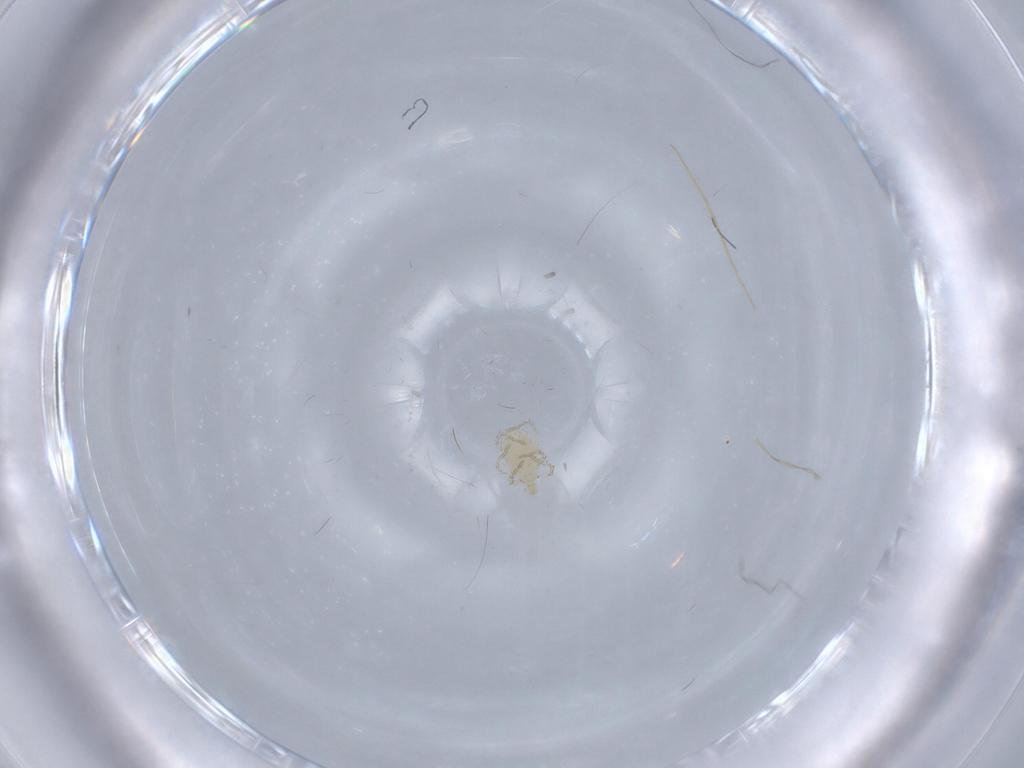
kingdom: Animalia
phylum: Arthropoda
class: Arachnida
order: Trombidiformes
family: Erythraeidae
